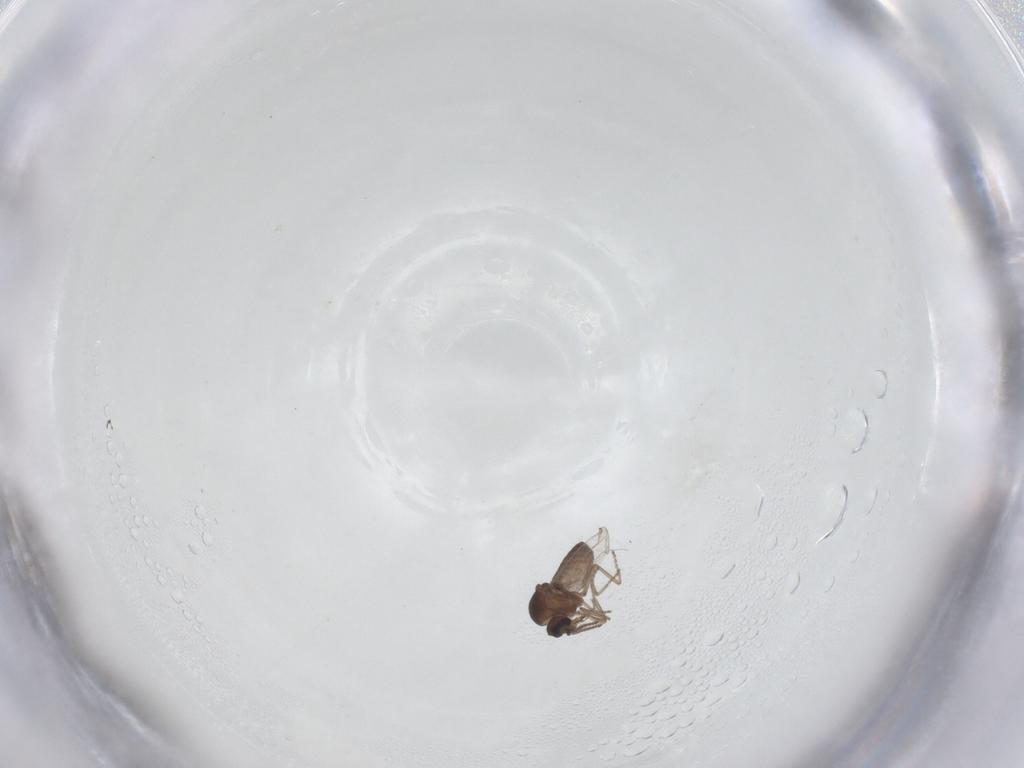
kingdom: Animalia
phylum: Arthropoda
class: Insecta
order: Diptera
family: Ceratopogonidae
